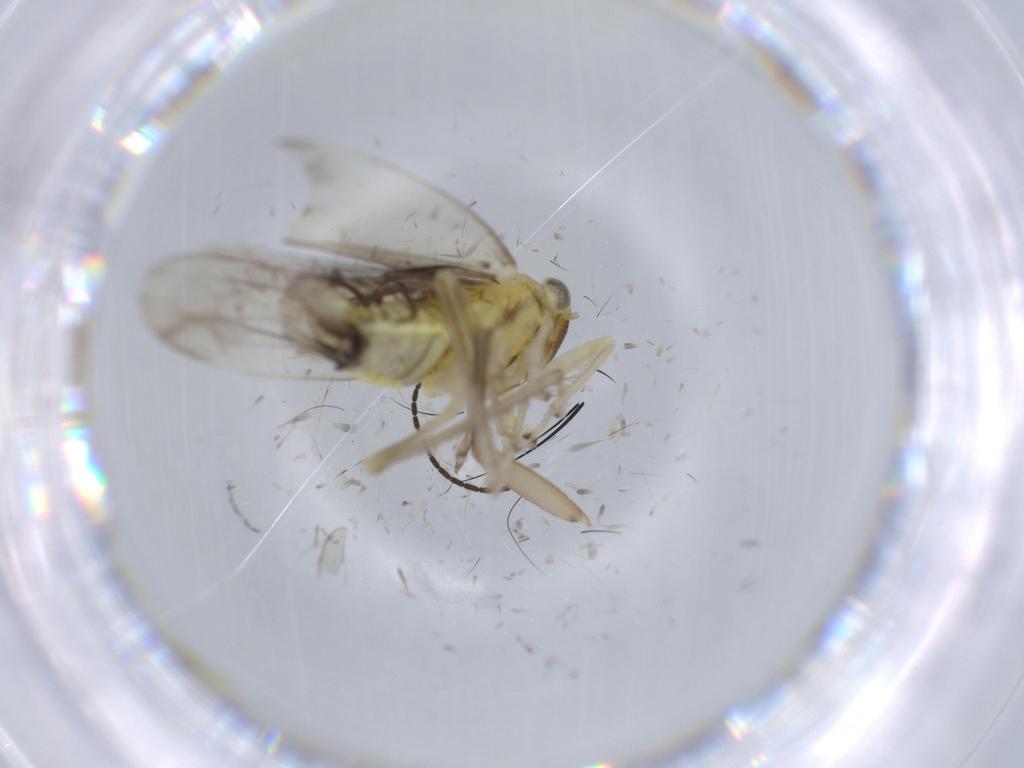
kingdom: Animalia
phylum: Arthropoda
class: Insecta
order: Hemiptera
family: Cicadellidae
